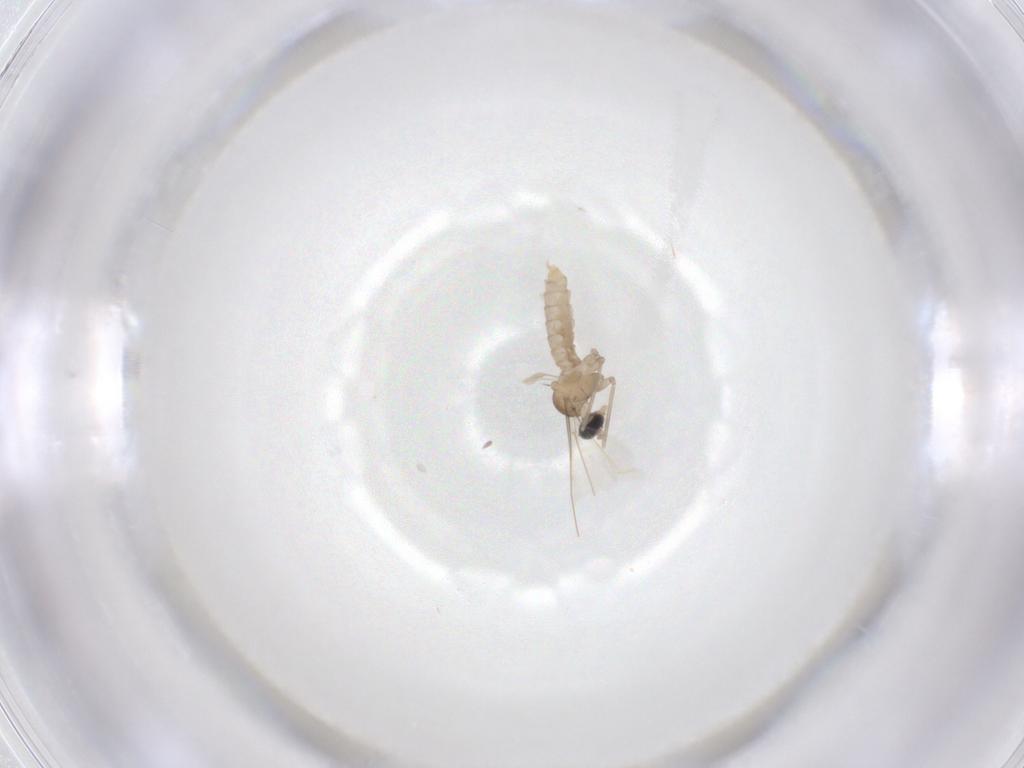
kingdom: Animalia
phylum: Arthropoda
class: Insecta
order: Diptera
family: Cecidomyiidae
